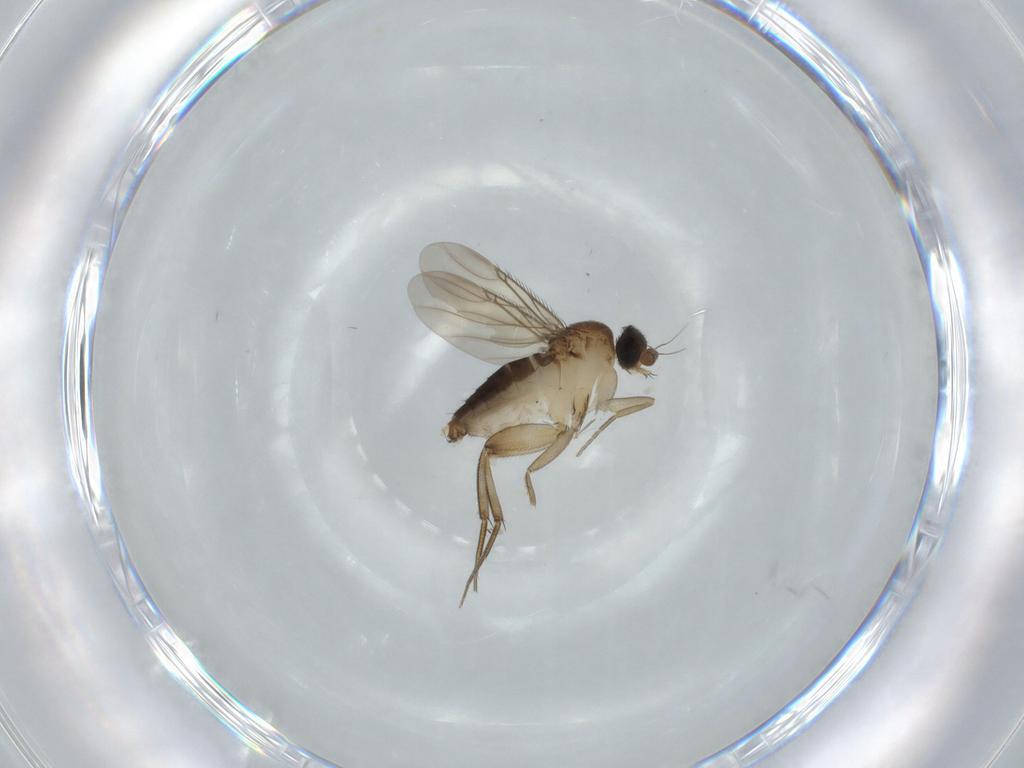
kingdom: Animalia
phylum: Arthropoda
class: Insecta
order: Diptera
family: Phoridae
